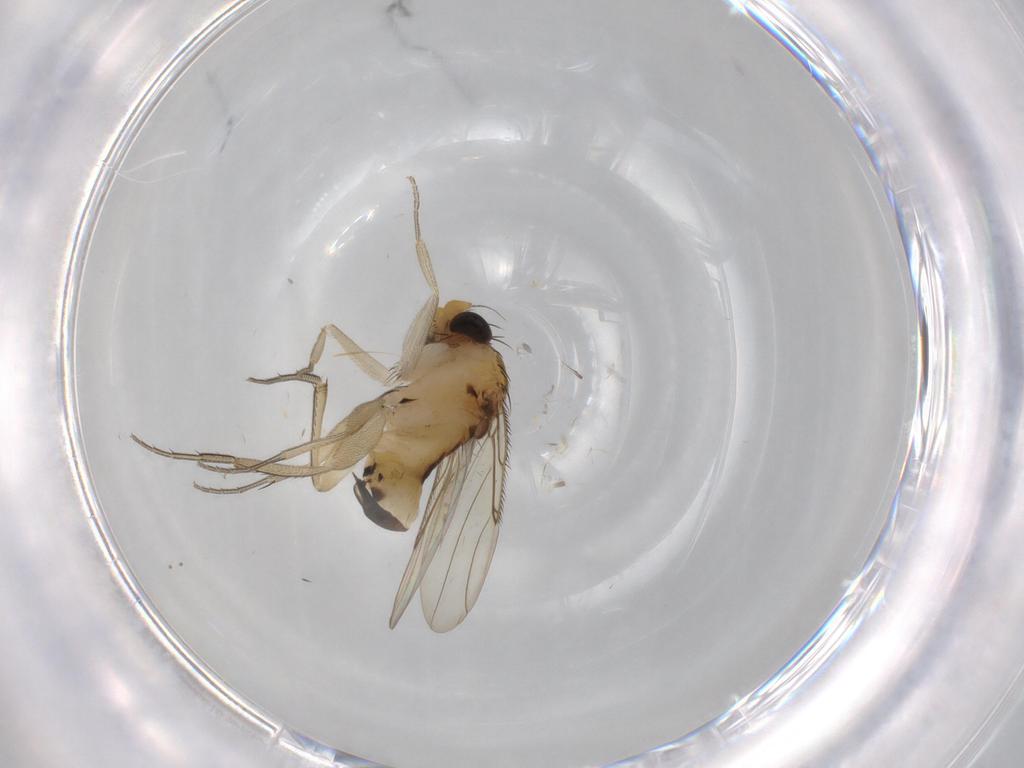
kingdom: Animalia
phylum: Arthropoda
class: Insecta
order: Diptera
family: Phoridae
